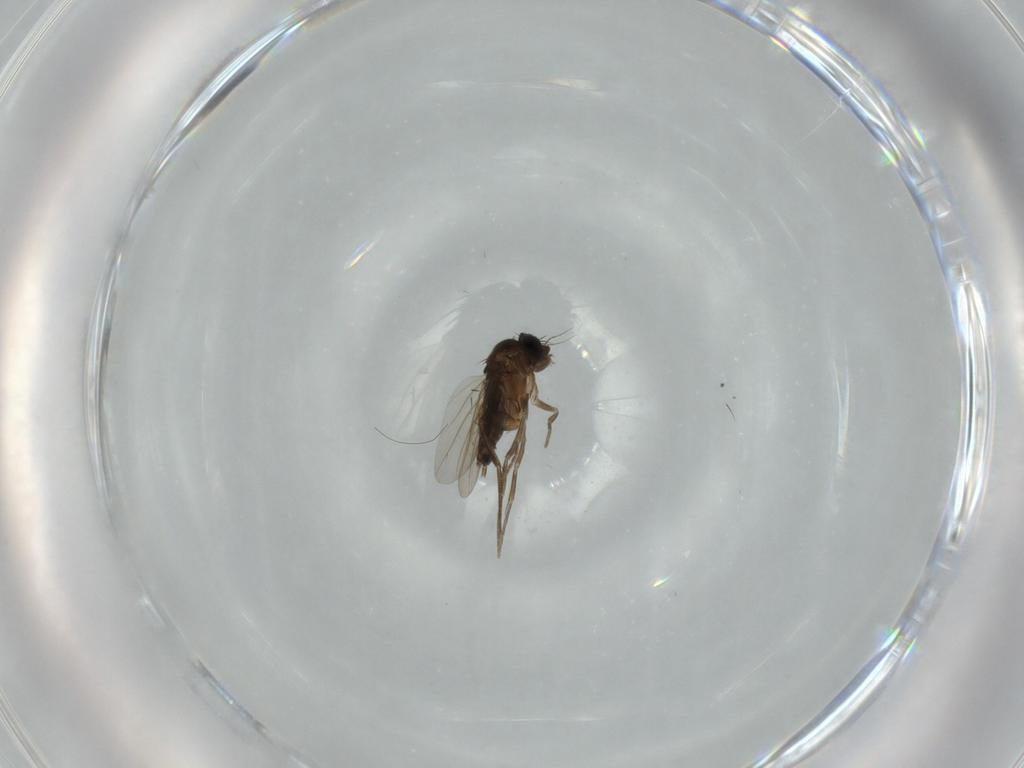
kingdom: Animalia
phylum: Arthropoda
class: Insecta
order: Diptera
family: Phoridae
